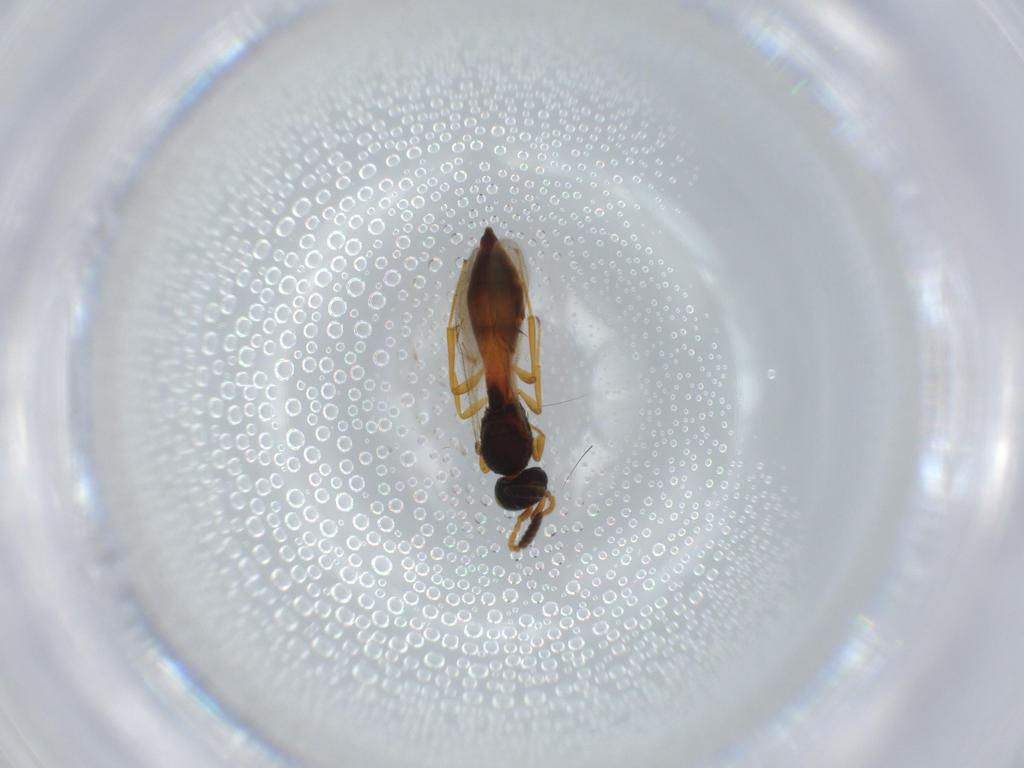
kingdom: Animalia
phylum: Arthropoda
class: Insecta
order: Hymenoptera
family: Scelionidae
